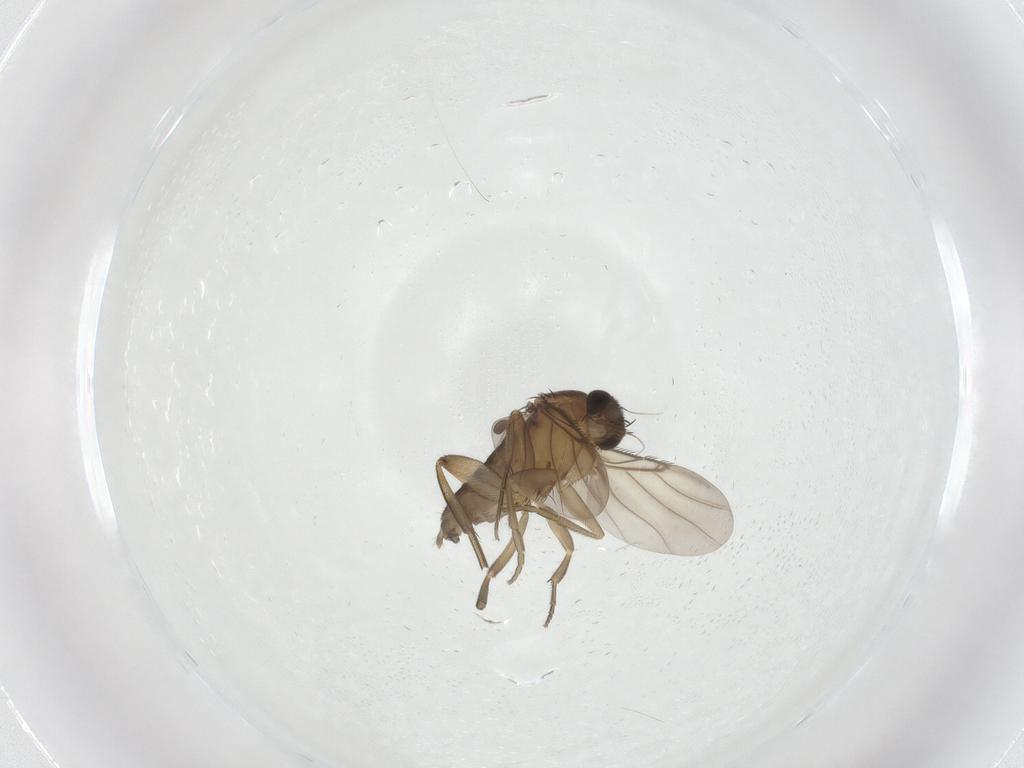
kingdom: Animalia
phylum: Arthropoda
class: Insecta
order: Diptera
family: Phoridae
